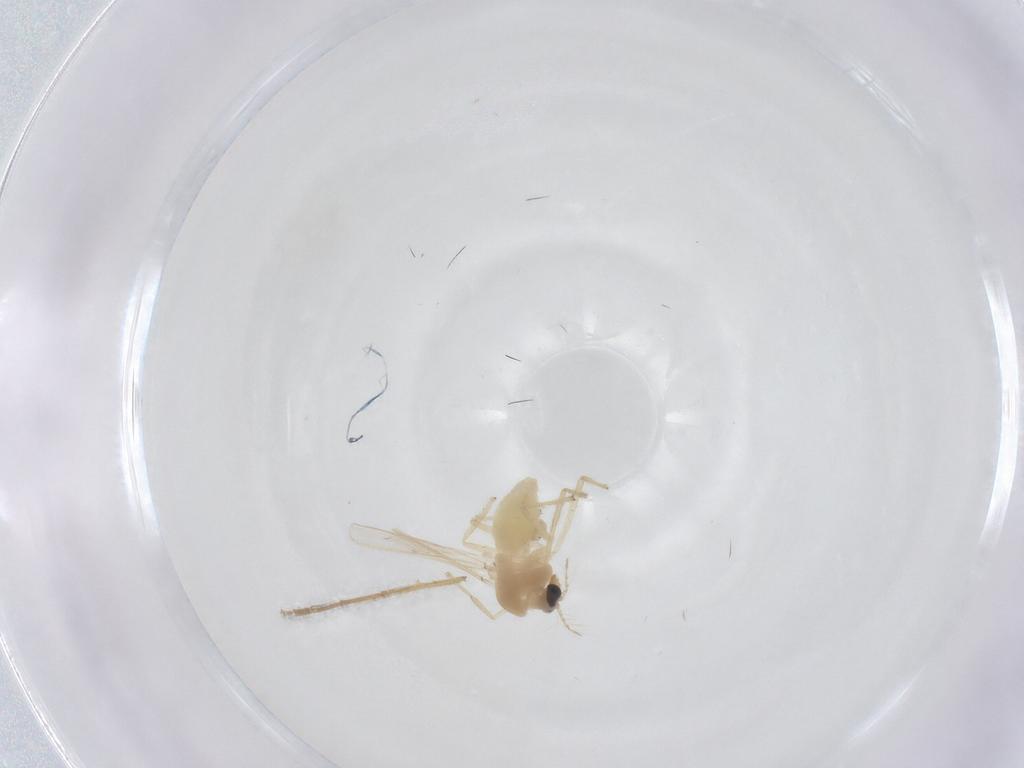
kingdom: Animalia
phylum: Arthropoda
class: Insecta
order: Diptera
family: Chironomidae
